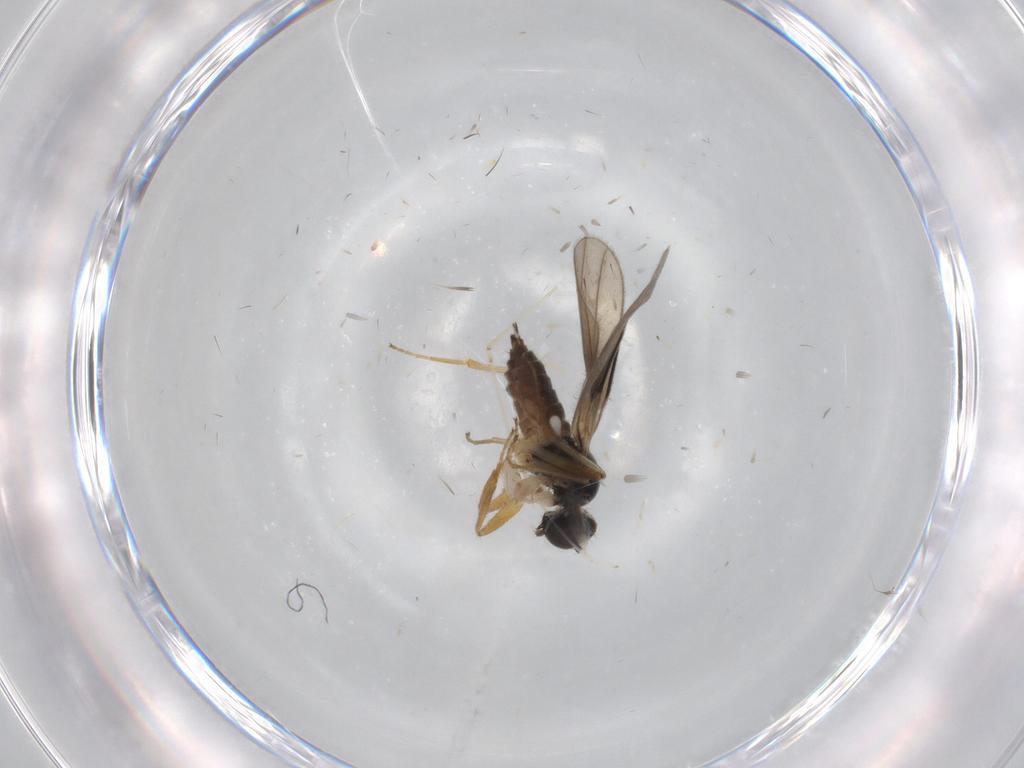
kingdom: Animalia
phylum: Arthropoda
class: Insecta
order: Diptera
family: Hybotidae
